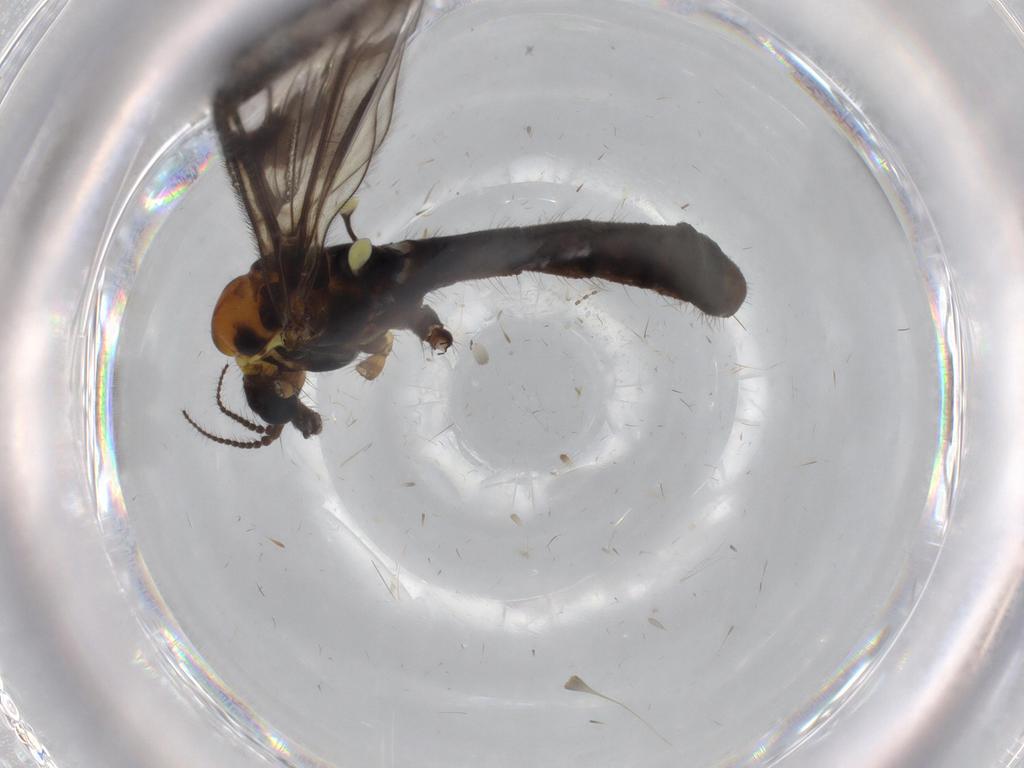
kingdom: Animalia
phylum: Arthropoda
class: Insecta
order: Diptera
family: Limoniidae
